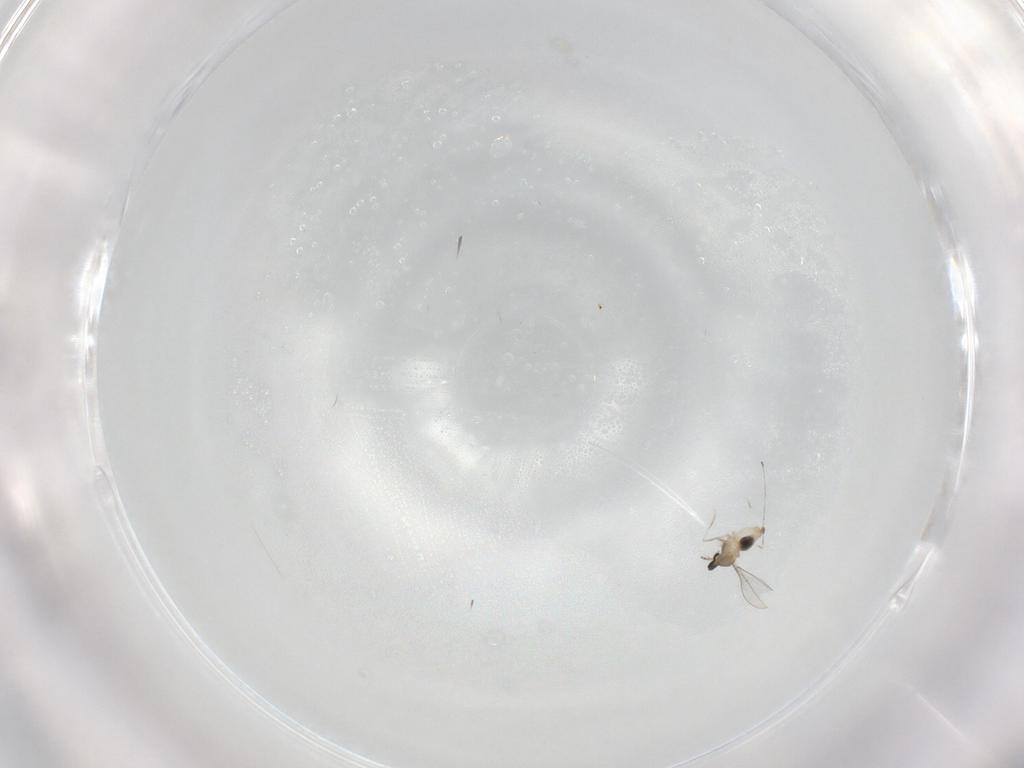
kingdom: Animalia
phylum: Arthropoda
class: Insecta
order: Diptera
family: Cecidomyiidae
